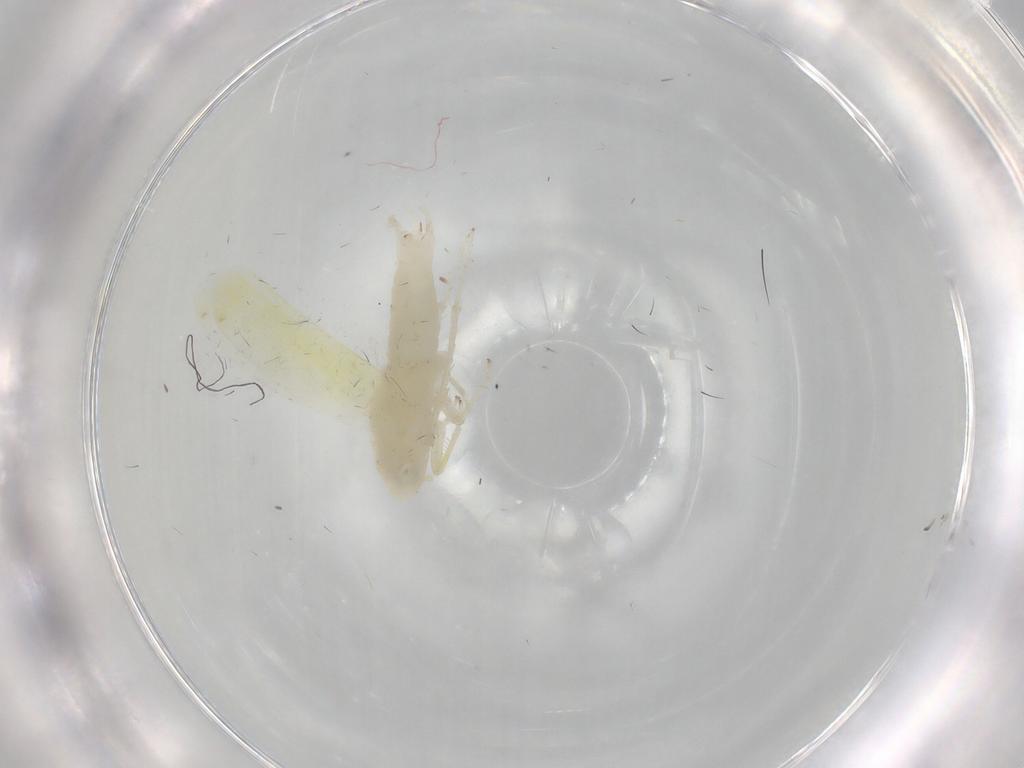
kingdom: Animalia
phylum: Arthropoda
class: Insecta
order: Hemiptera
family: Cicadellidae
